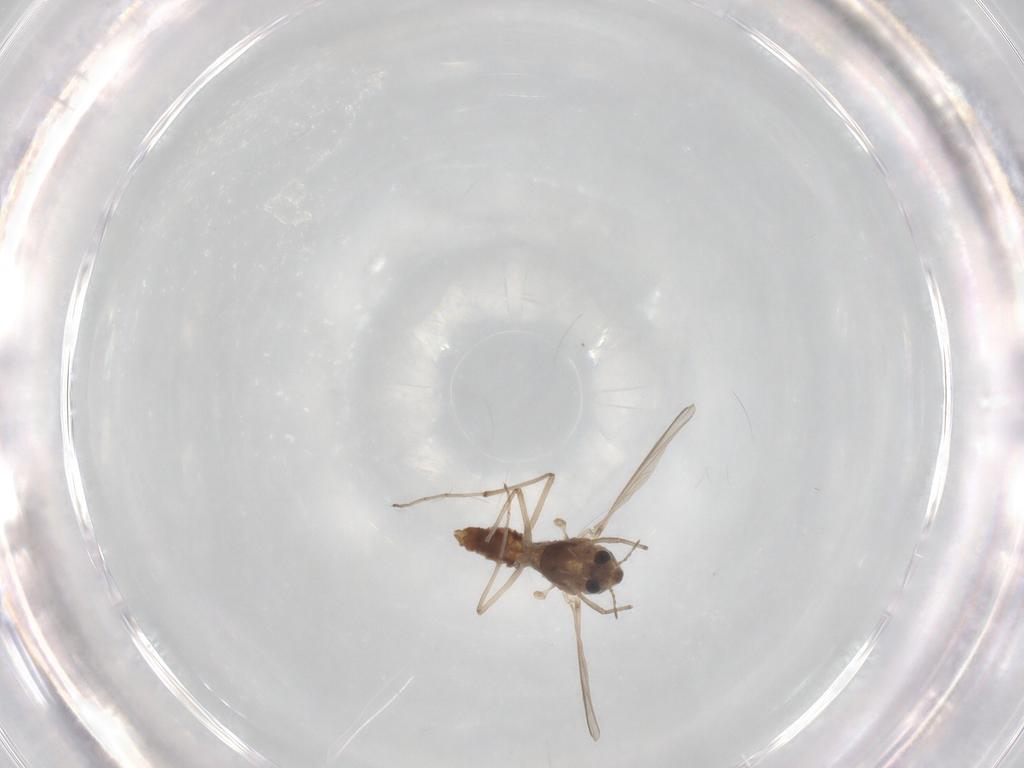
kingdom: Animalia
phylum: Arthropoda
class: Insecta
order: Diptera
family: Chironomidae
